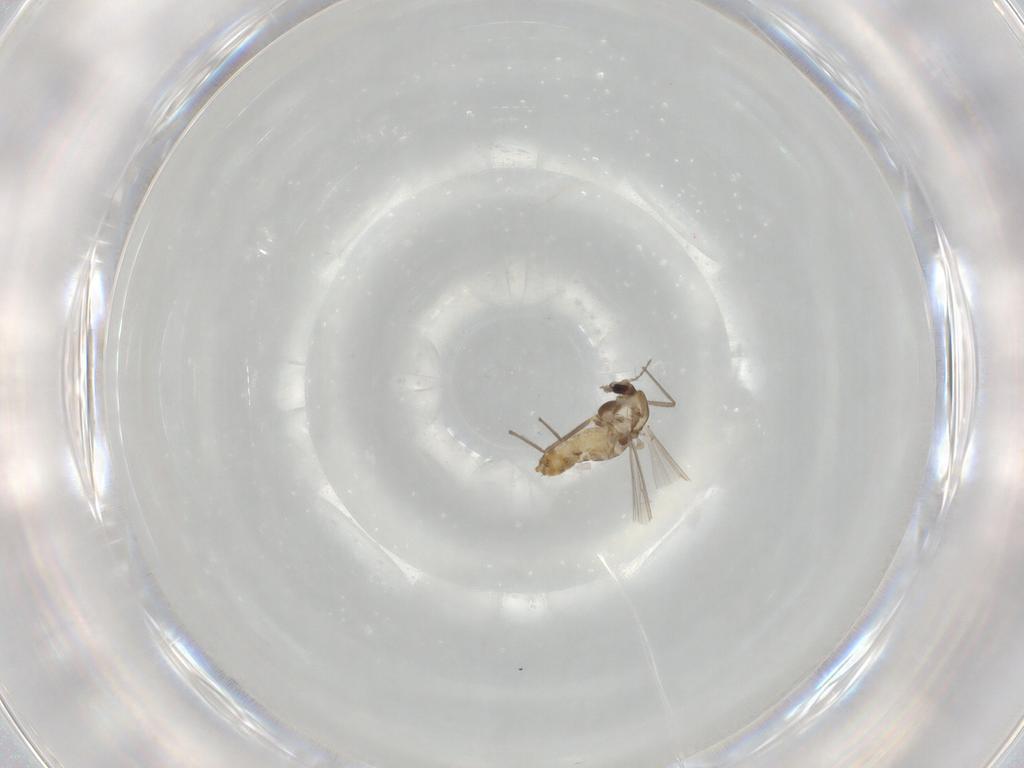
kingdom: Animalia
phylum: Arthropoda
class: Insecta
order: Diptera
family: Chironomidae
